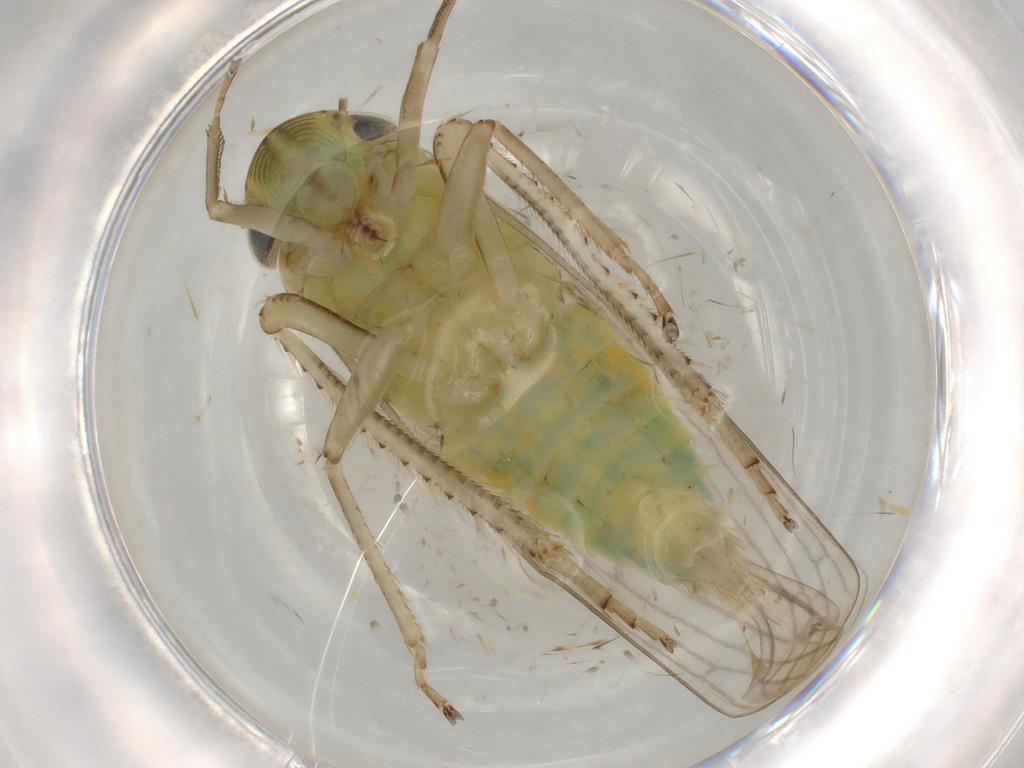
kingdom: Animalia
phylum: Arthropoda
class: Insecta
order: Hemiptera
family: Cicadellidae
